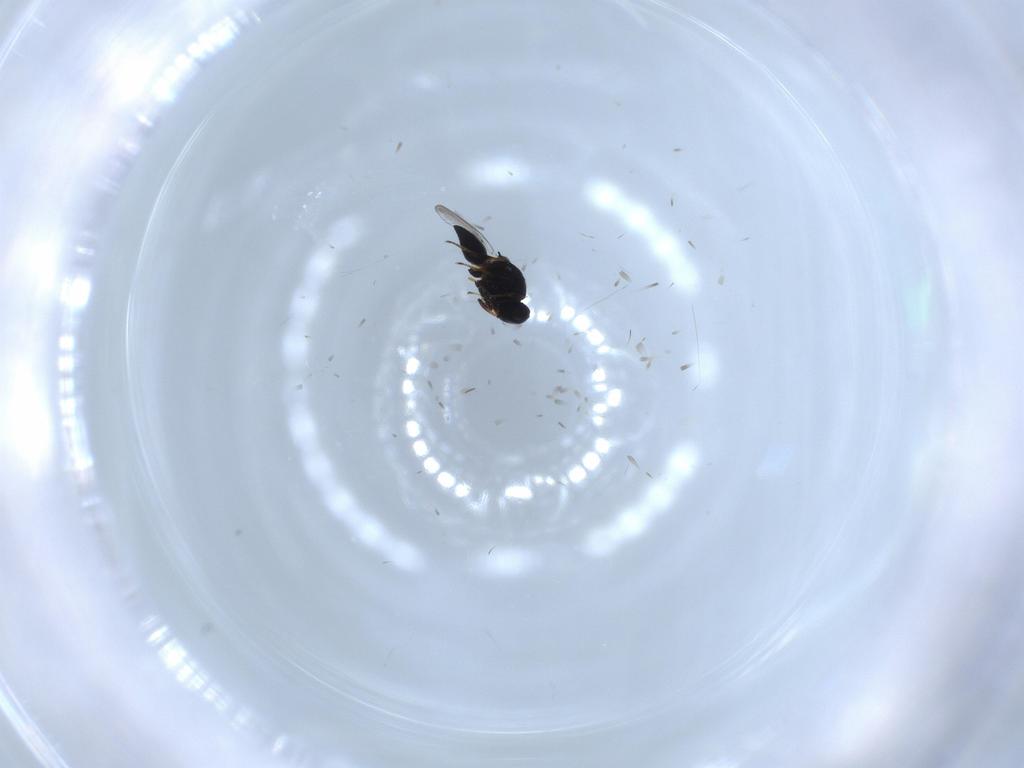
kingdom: Animalia
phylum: Arthropoda
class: Insecta
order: Hymenoptera
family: Platygastridae
